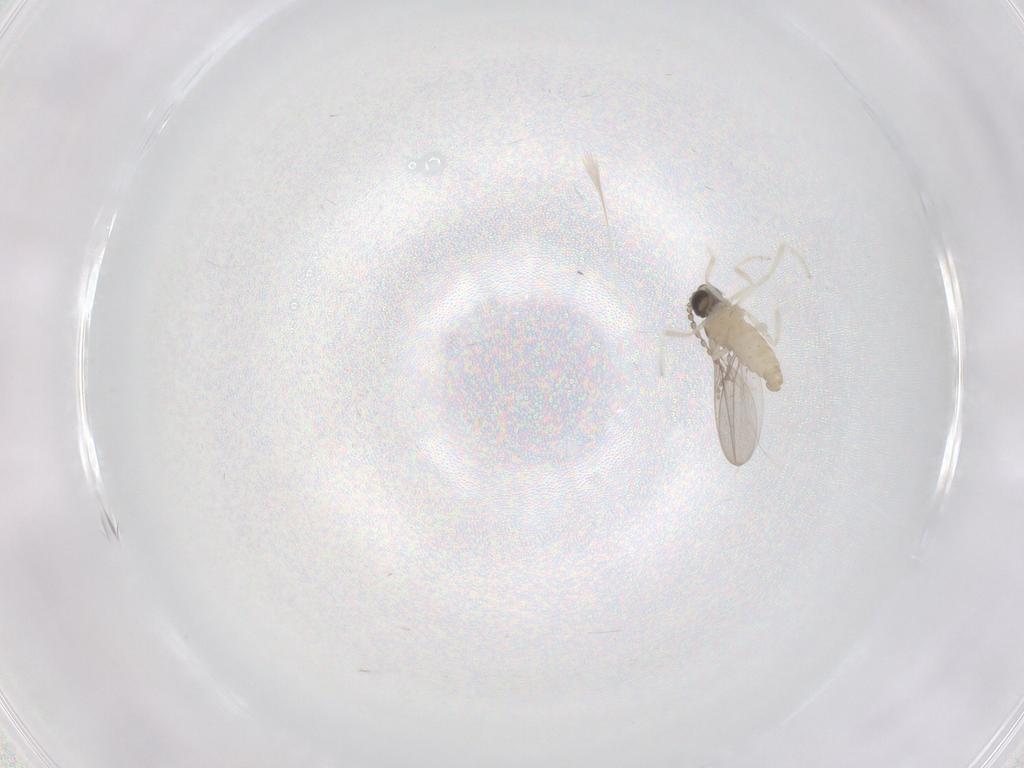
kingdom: Animalia
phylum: Arthropoda
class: Insecta
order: Diptera
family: Cecidomyiidae
